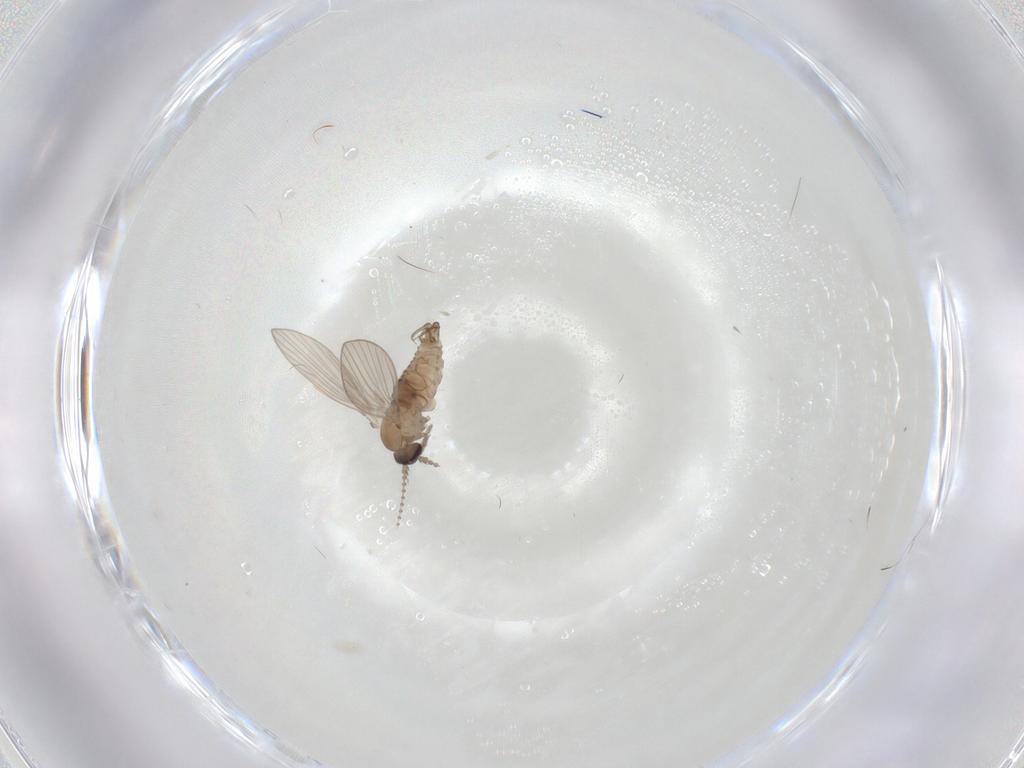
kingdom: Animalia
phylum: Arthropoda
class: Insecta
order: Diptera
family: Psychodidae
